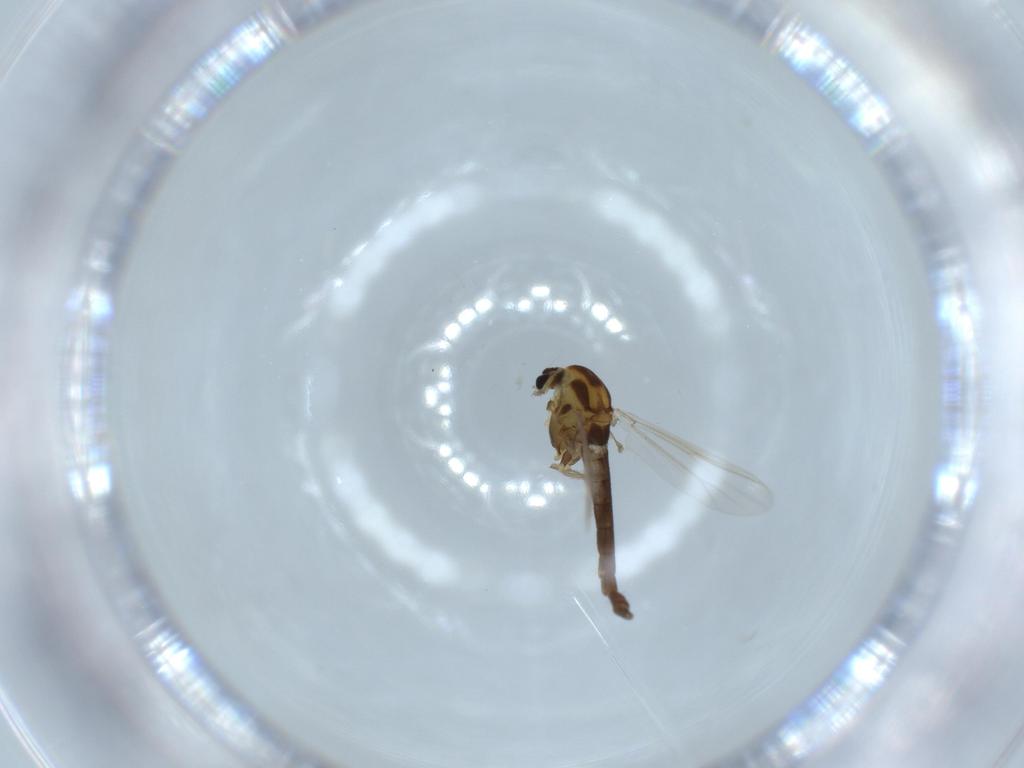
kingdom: Animalia
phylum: Arthropoda
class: Insecta
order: Diptera
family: Chironomidae
